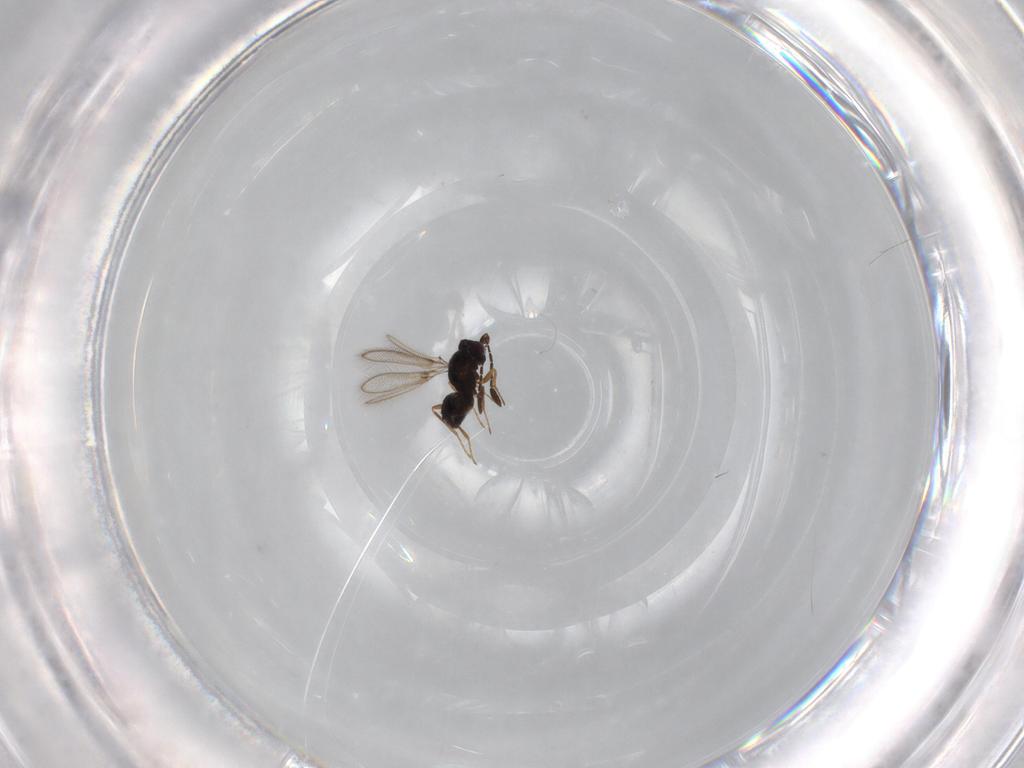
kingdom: Animalia
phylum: Arthropoda
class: Insecta
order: Hymenoptera
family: Mymaridae
